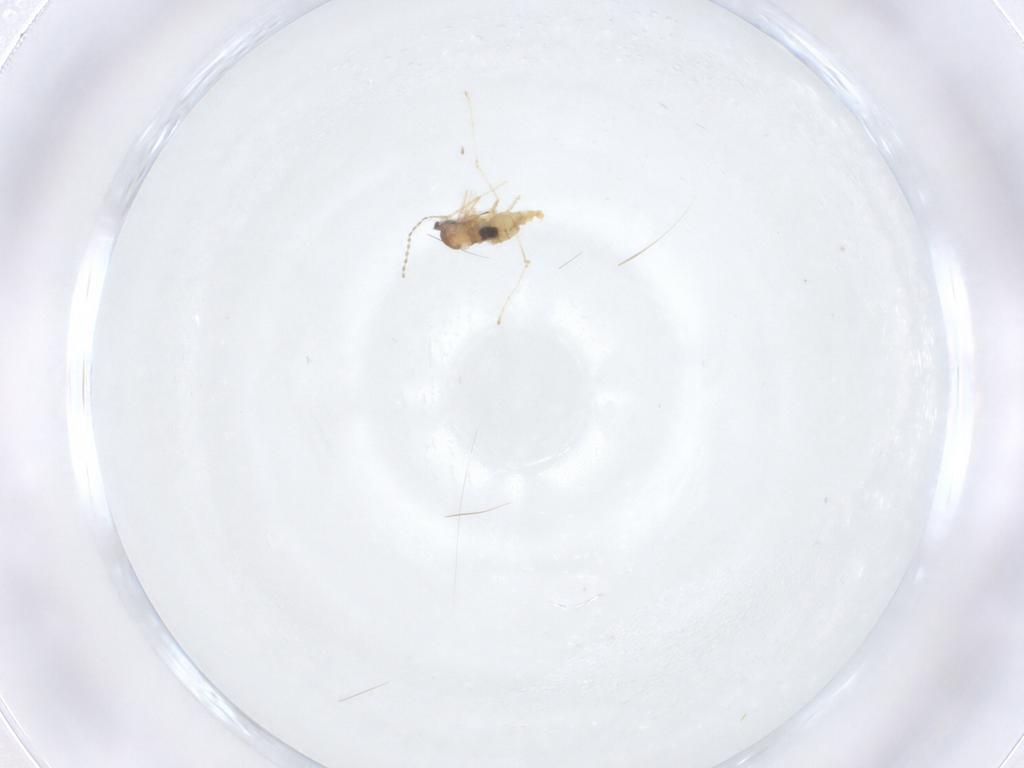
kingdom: Animalia
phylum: Arthropoda
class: Insecta
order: Diptera
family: Cecidomyiidae
